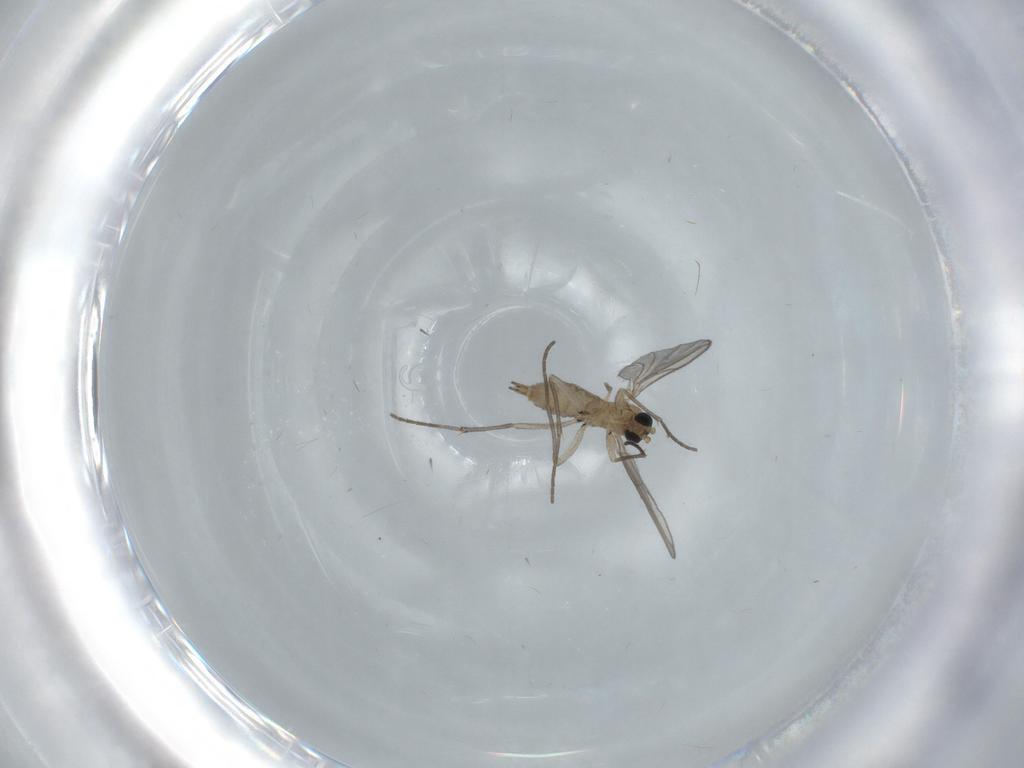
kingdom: Animalia
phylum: Arthropoda
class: Insecta
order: Diptera
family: Sciaridae
